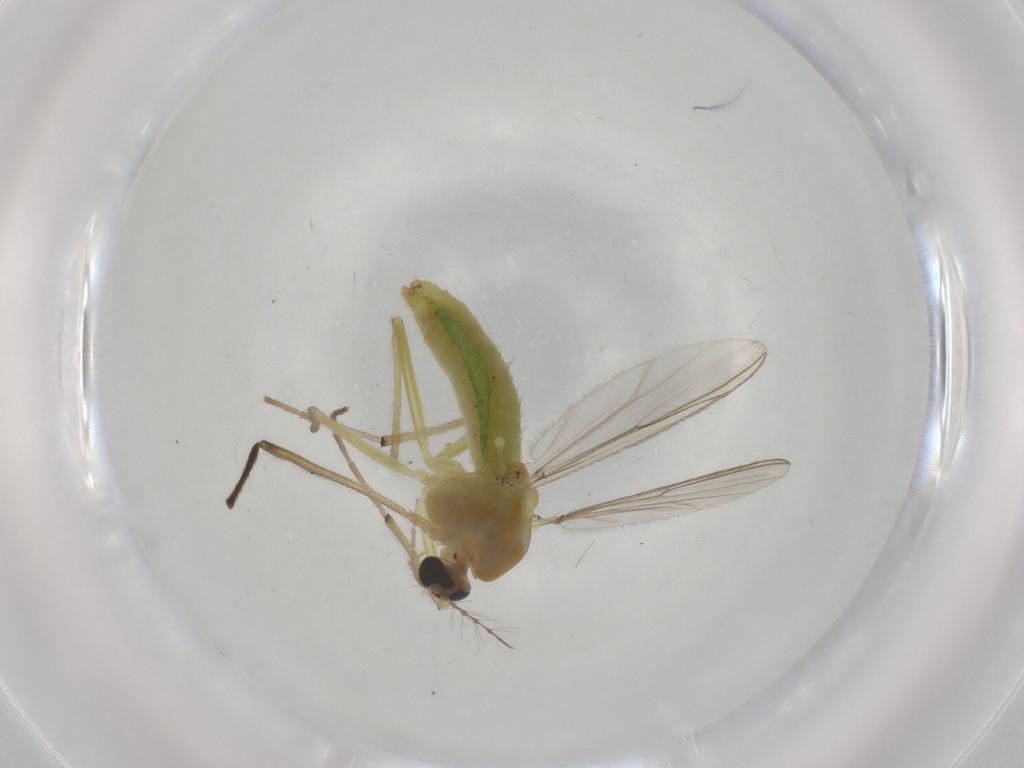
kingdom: Animalia
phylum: Arthropoda
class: Insecta
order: Diptera
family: Chironomidae
